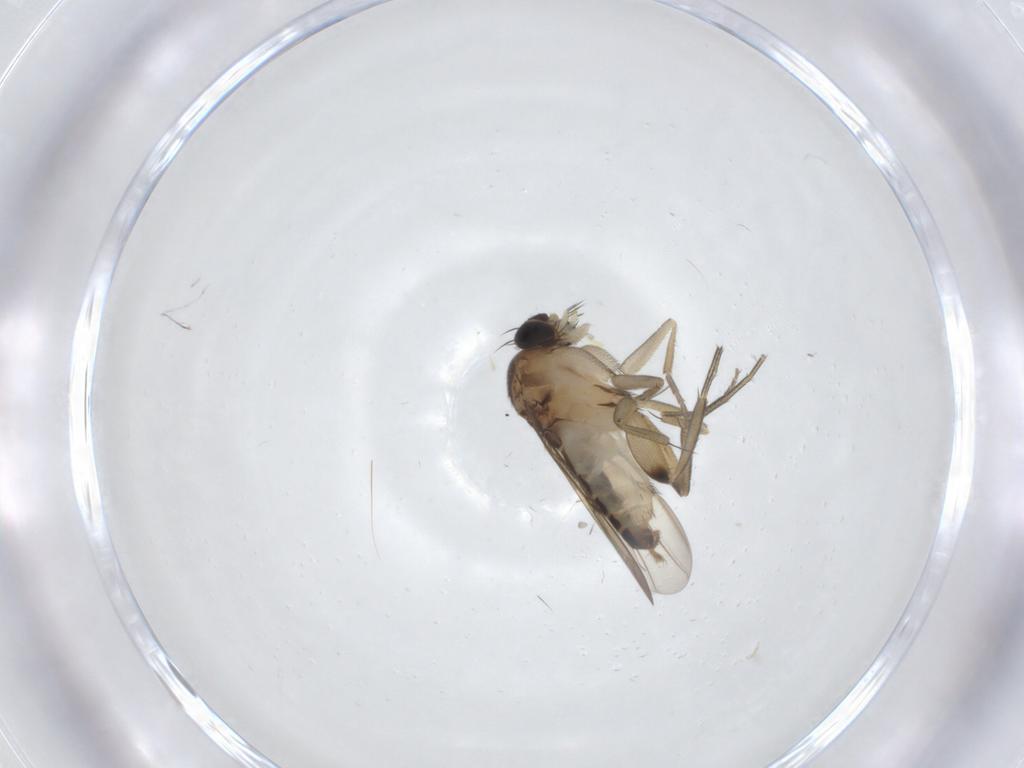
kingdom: Animalia
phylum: Arthropoda
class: Insecta
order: Diptera
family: Phoridae
